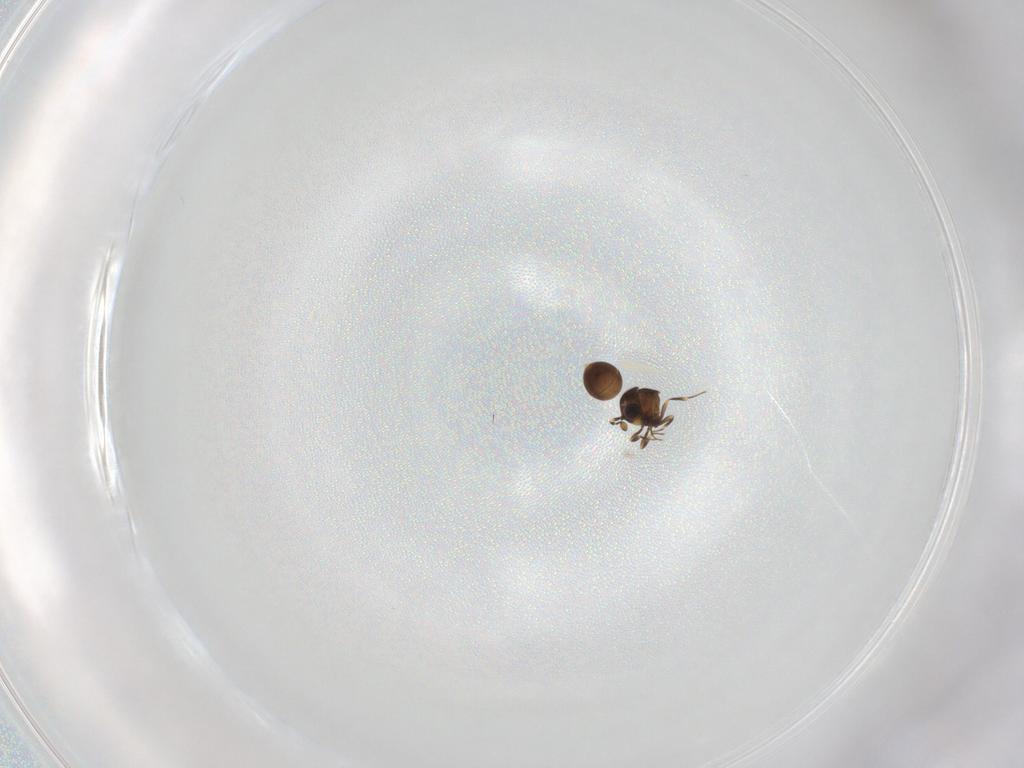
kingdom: Animalia
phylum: Arthropoda
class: Insecta
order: Hymenoptera
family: Scelionidae
